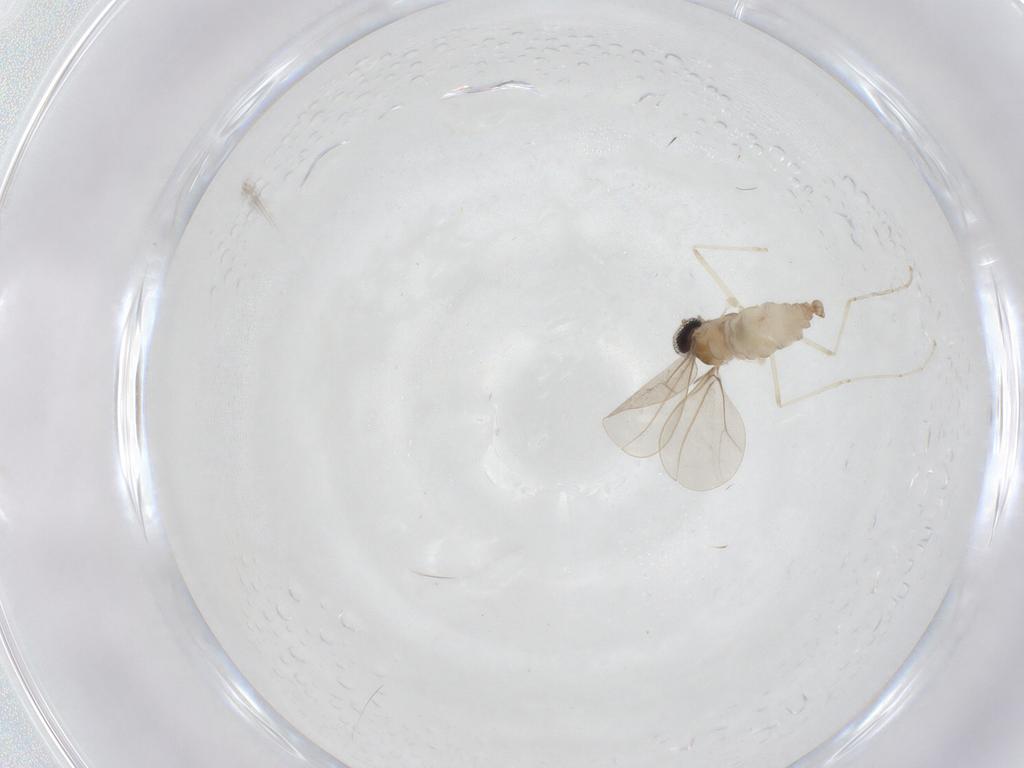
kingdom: Animalia
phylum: Arthropoda
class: Insecta
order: Diptera
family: Cecidomyiidae
